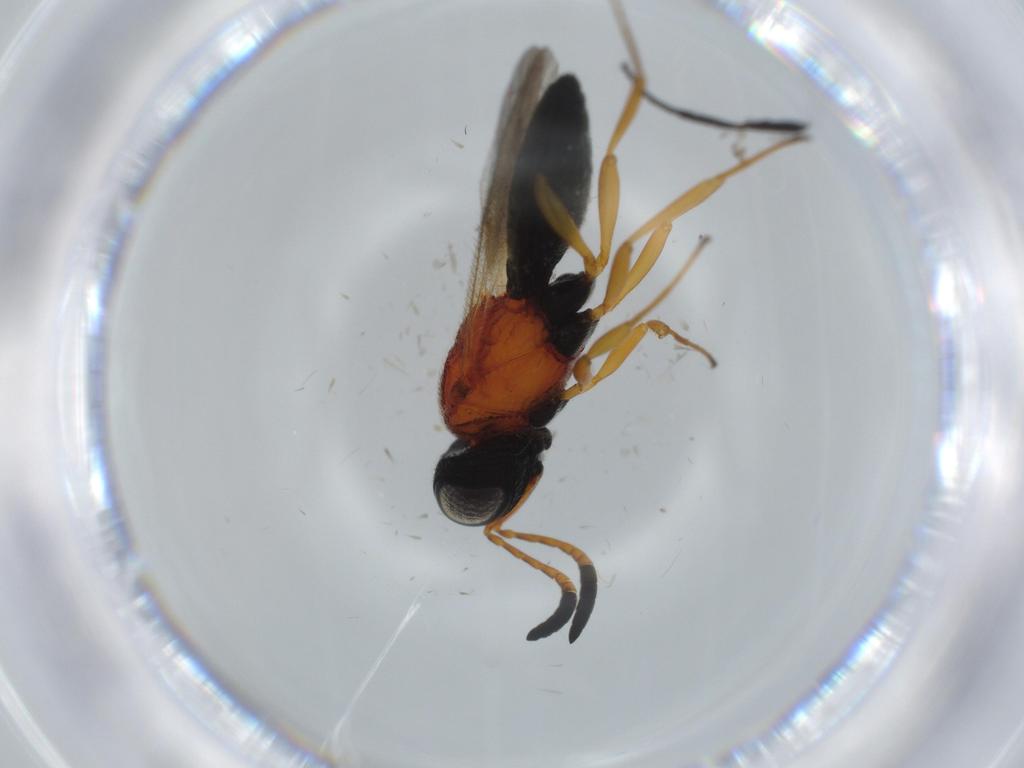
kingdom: Animalia
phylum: Arthropoda
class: Insecta
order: Hymenoptera
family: Scelionidae
